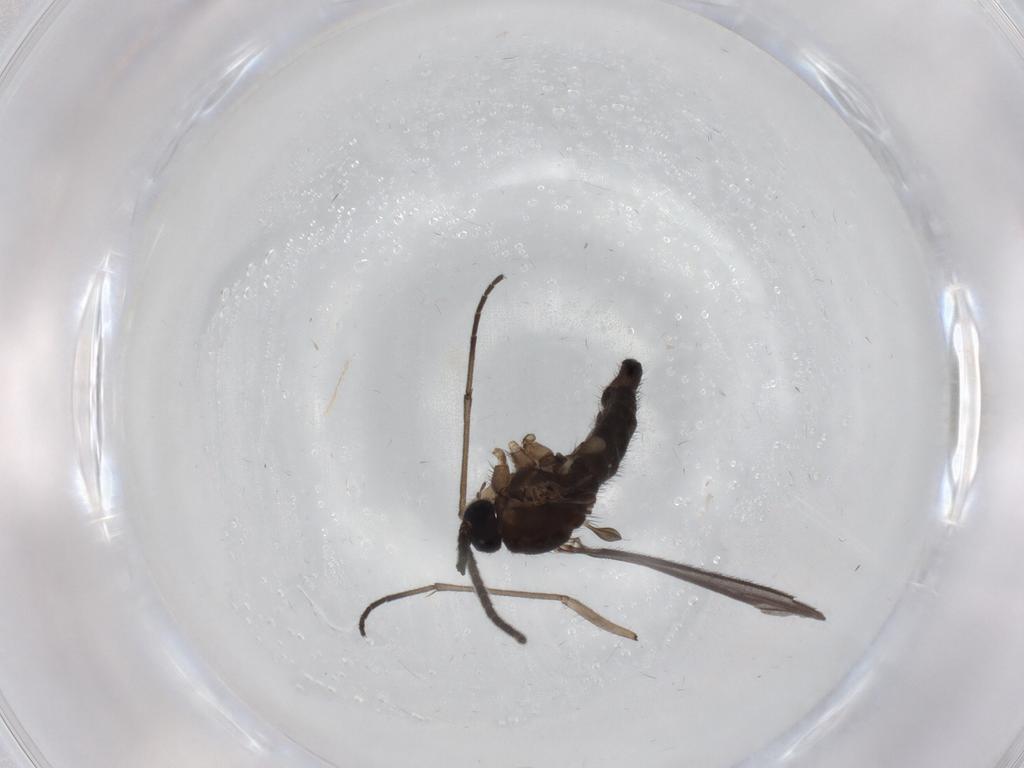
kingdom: Animalia
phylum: Arthropoda
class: Insecta
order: Diptera
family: Sciaridae
